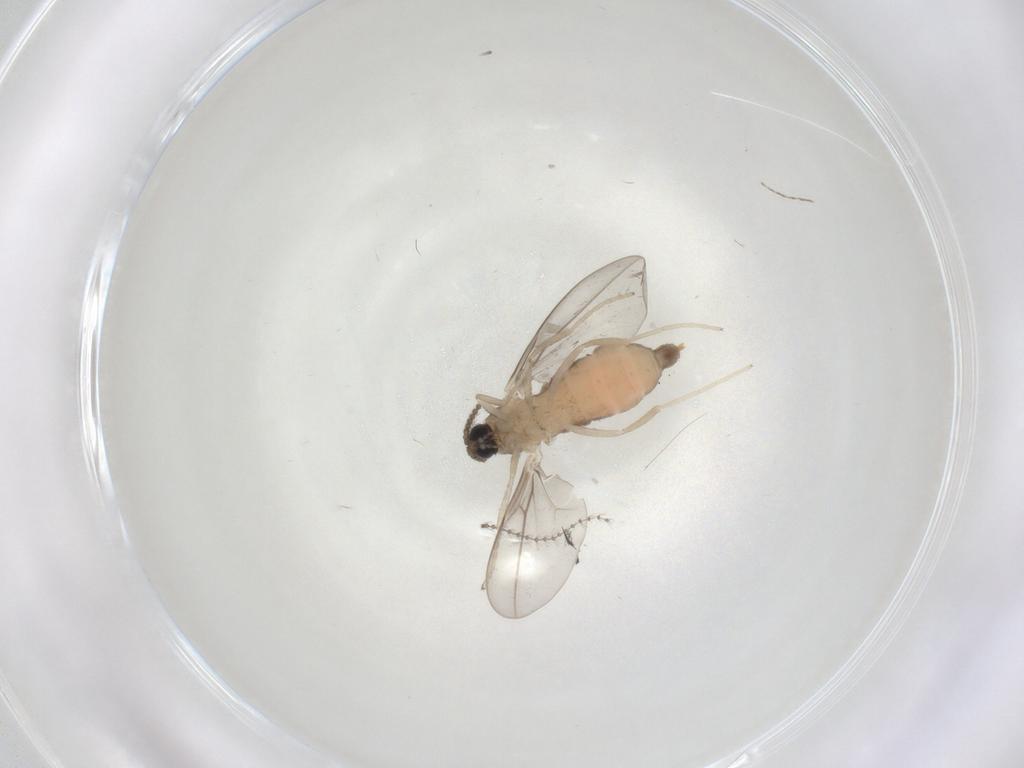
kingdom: Animalia
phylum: Arthropoda
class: Insecta
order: Diptera
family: Cecidomyiidae
